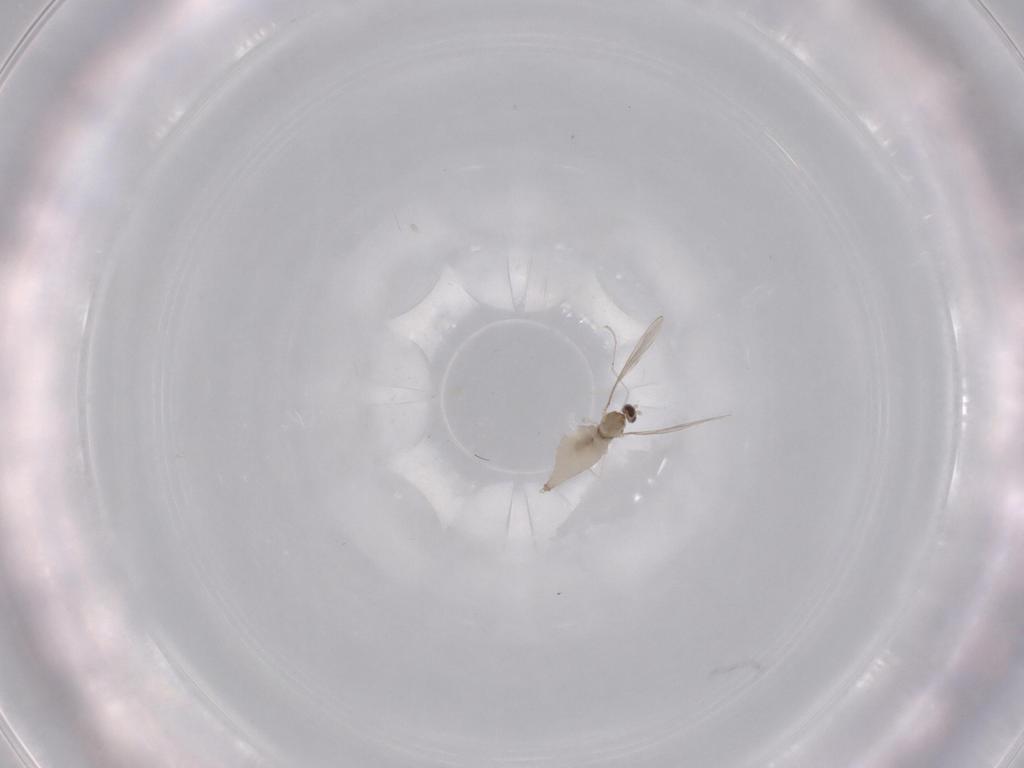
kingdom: Animalia
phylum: Arthropoda
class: Insecta
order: Diptera
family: Cecidomyiidae
